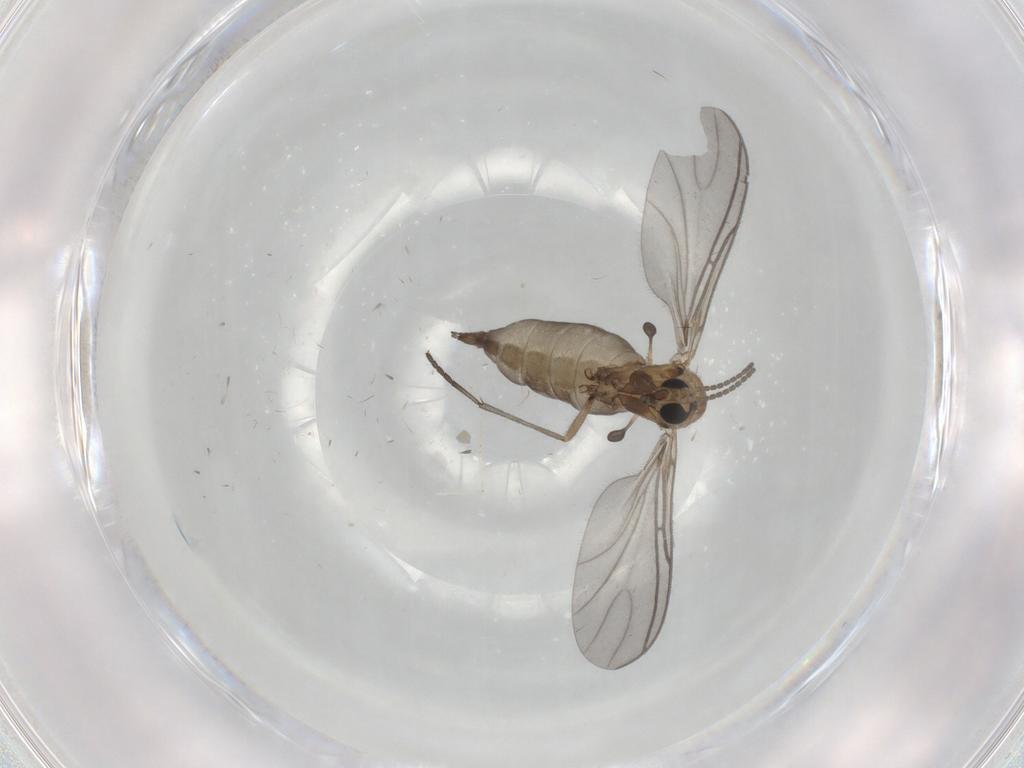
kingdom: Animalia
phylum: Arthropoda
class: Insecta
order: Diptera
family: Sciaridae
